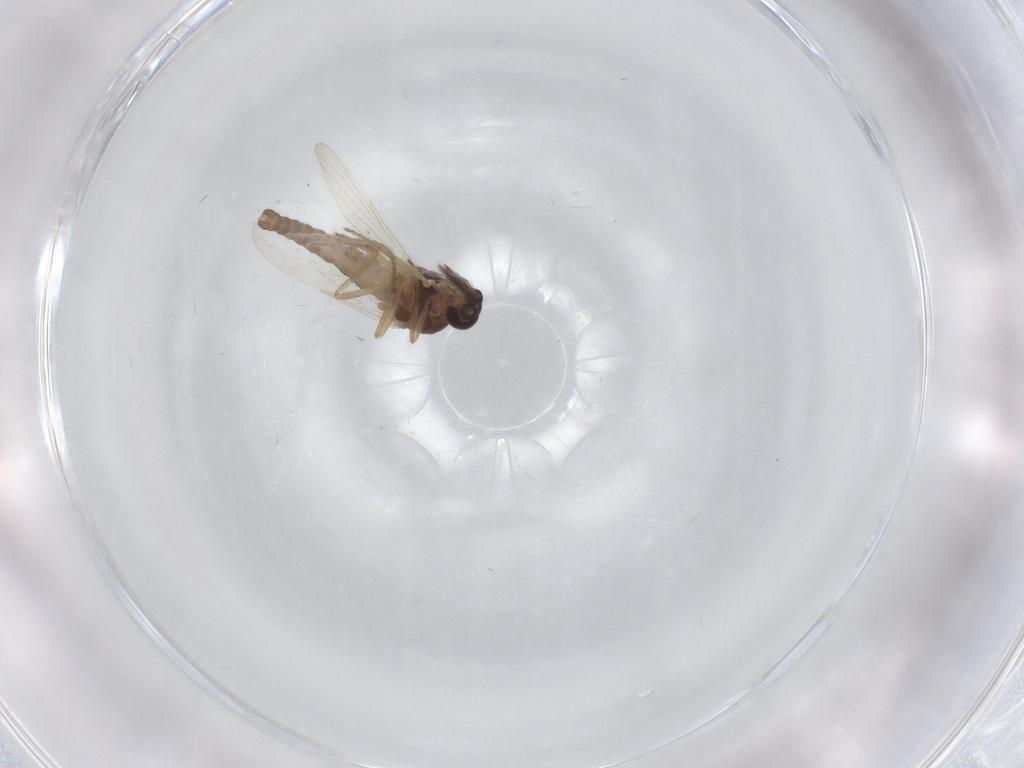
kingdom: Animalia
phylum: Arthropoda
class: Insecta
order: Diptera
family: Ceratopogonidae
